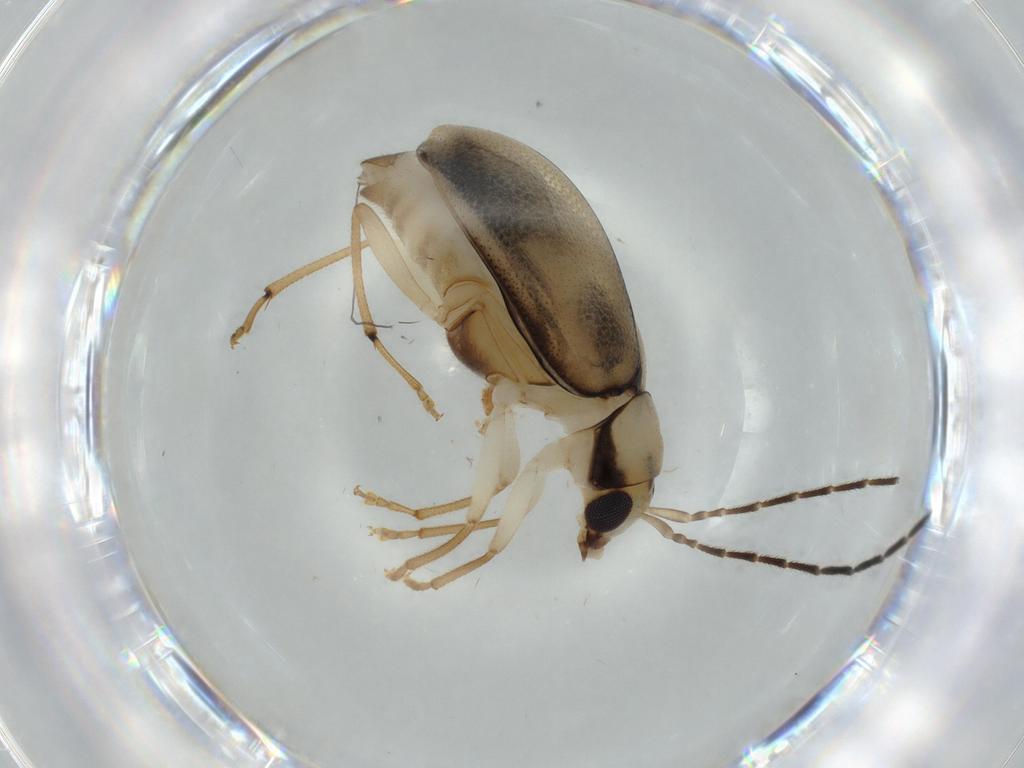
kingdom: Animalia
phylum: Arthropoda
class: Insecta
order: Coleoptera
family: Chrysomelidae
